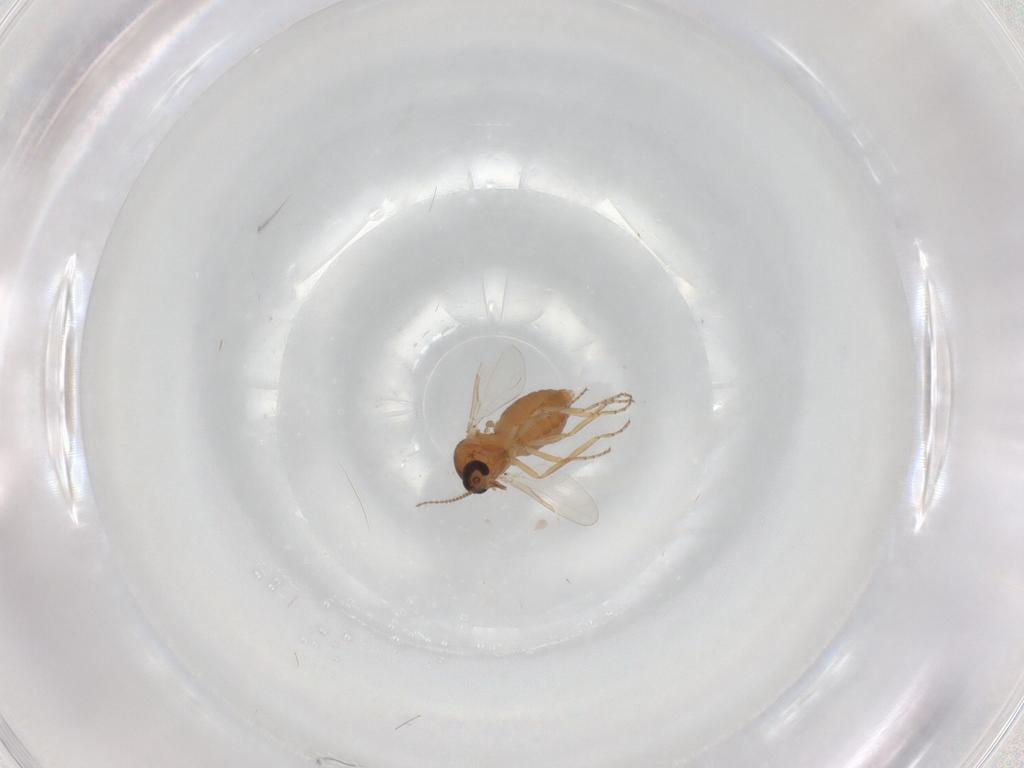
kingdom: Animalia
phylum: Arthropoda
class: Insecta
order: Diptera
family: Ceratopogonidae
